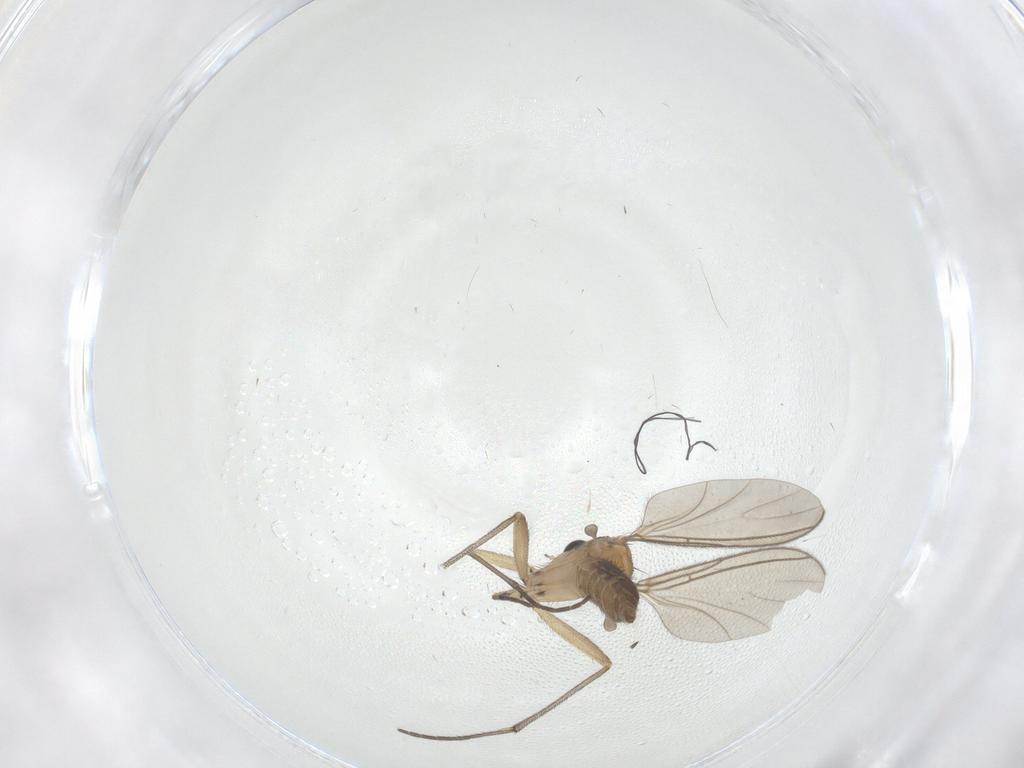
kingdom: Animalia
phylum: Arthropoda
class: Insecta
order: Diptera
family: Sciaridae
